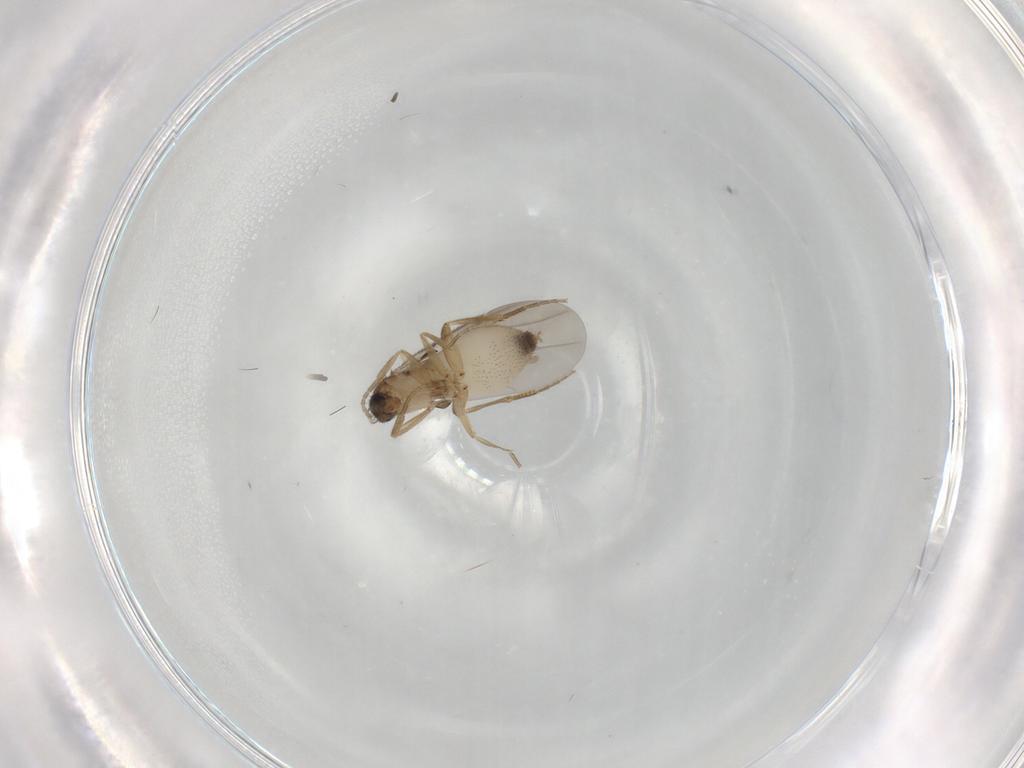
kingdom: Animalia
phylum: Arthropoda
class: Insecta
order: Diptera
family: Phoridae
